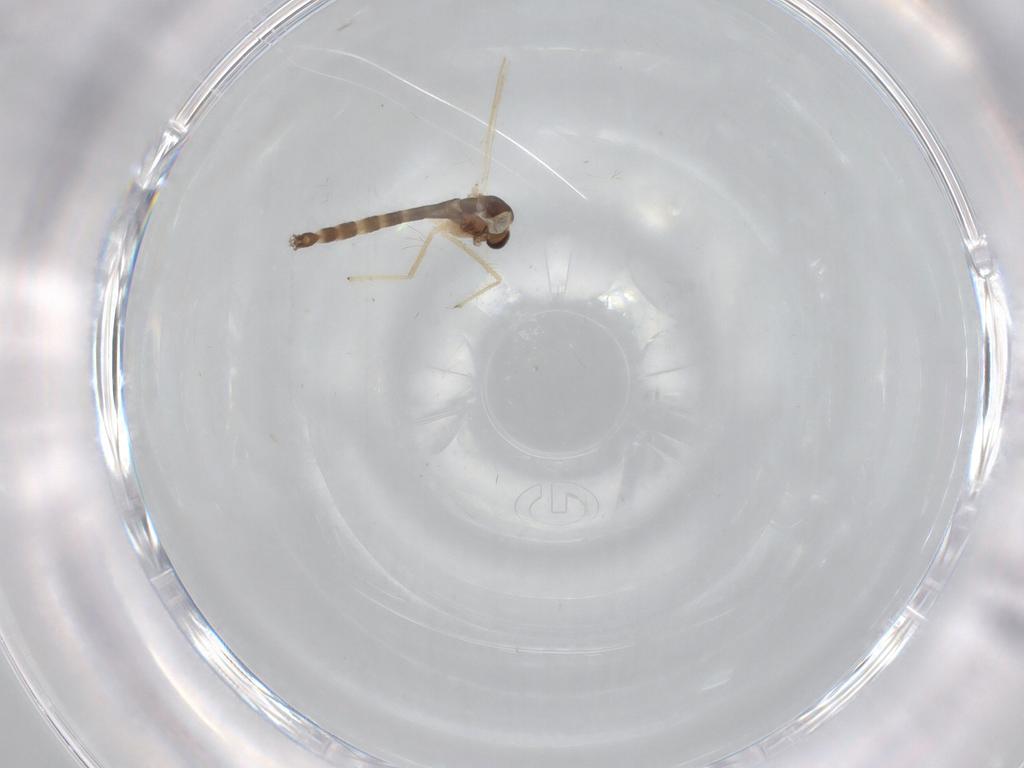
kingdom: Animalia
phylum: Arthropoda
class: Insecta
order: Diptera
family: Chironomidae
